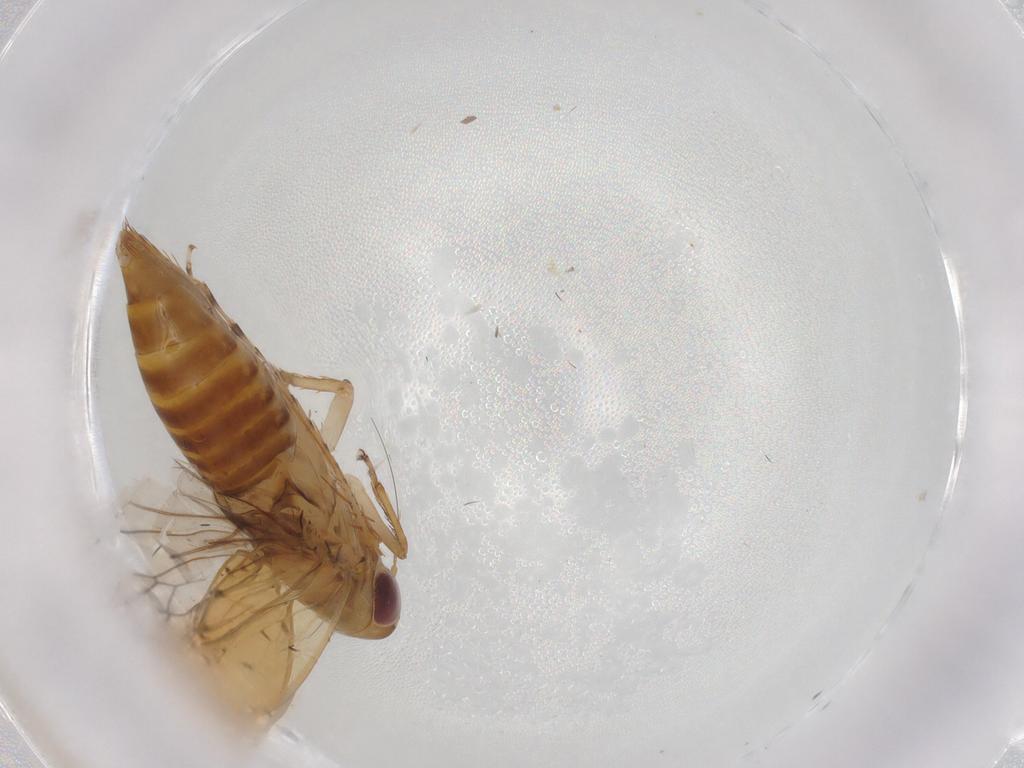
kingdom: Animalia
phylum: Arthropoda
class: Insecta
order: Hemiptera
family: Cicadellidae
